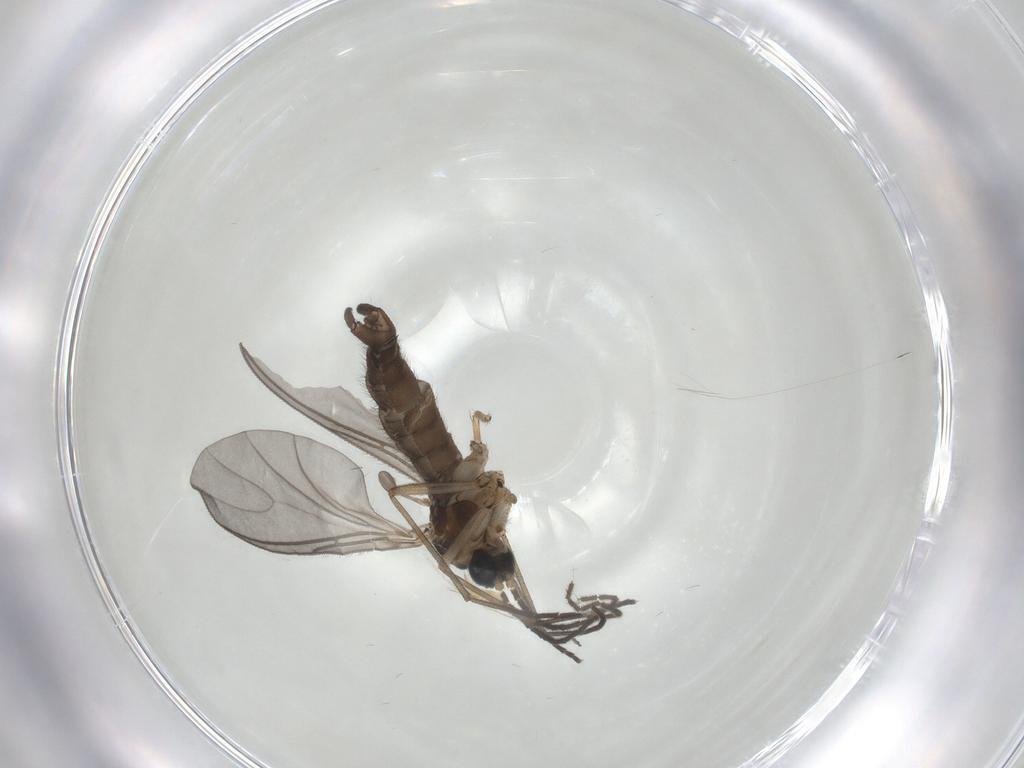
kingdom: Animalia
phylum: Arthropoda
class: Insecta
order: Diptera
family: Sciaridae
